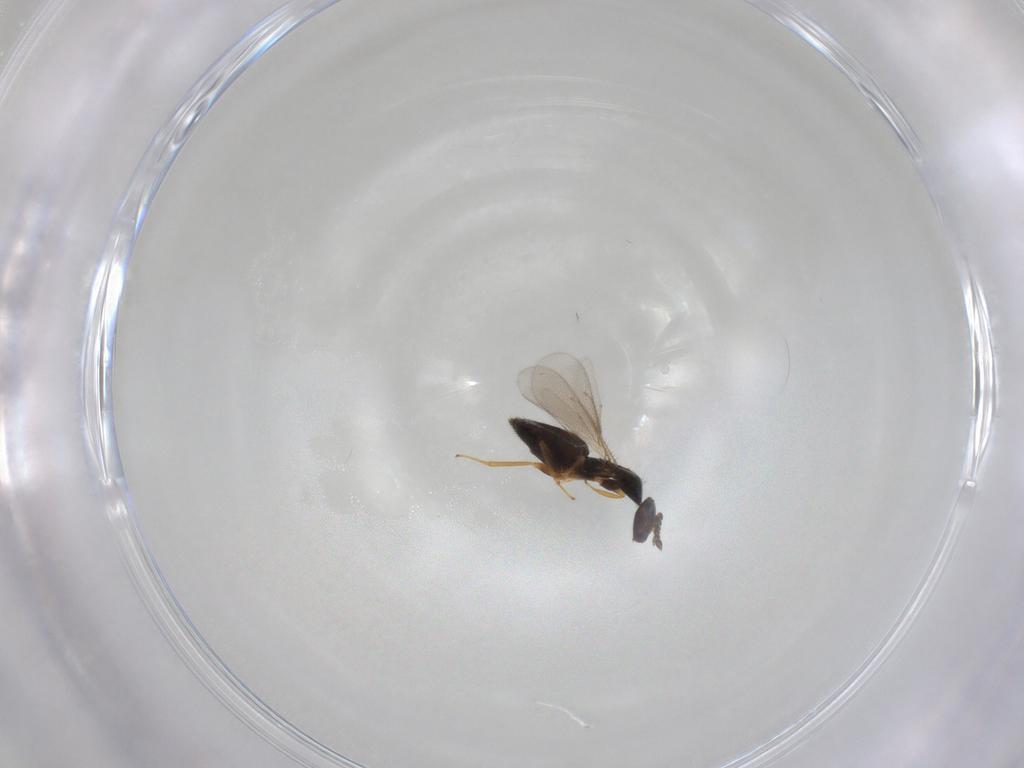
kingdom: Animalia
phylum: Arthropoda
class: Insecta
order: Hymenoptera
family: Eulophidae
